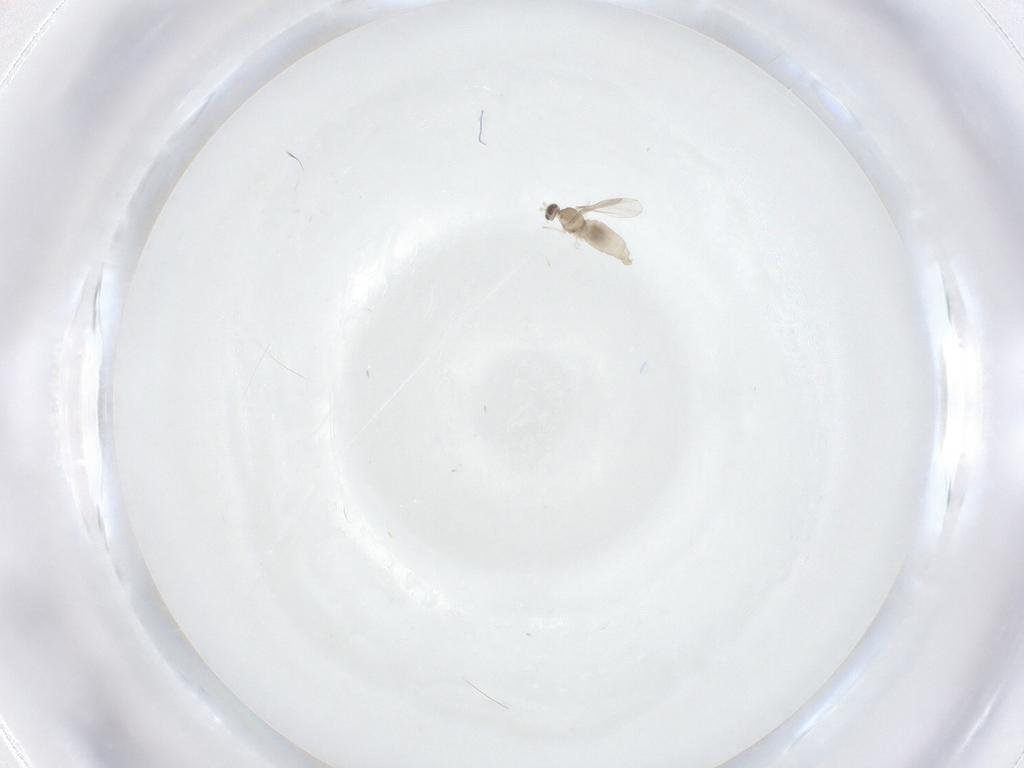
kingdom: Animalia
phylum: Arthropoda
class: Insecta
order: Diptera
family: Cecidomyiidae
